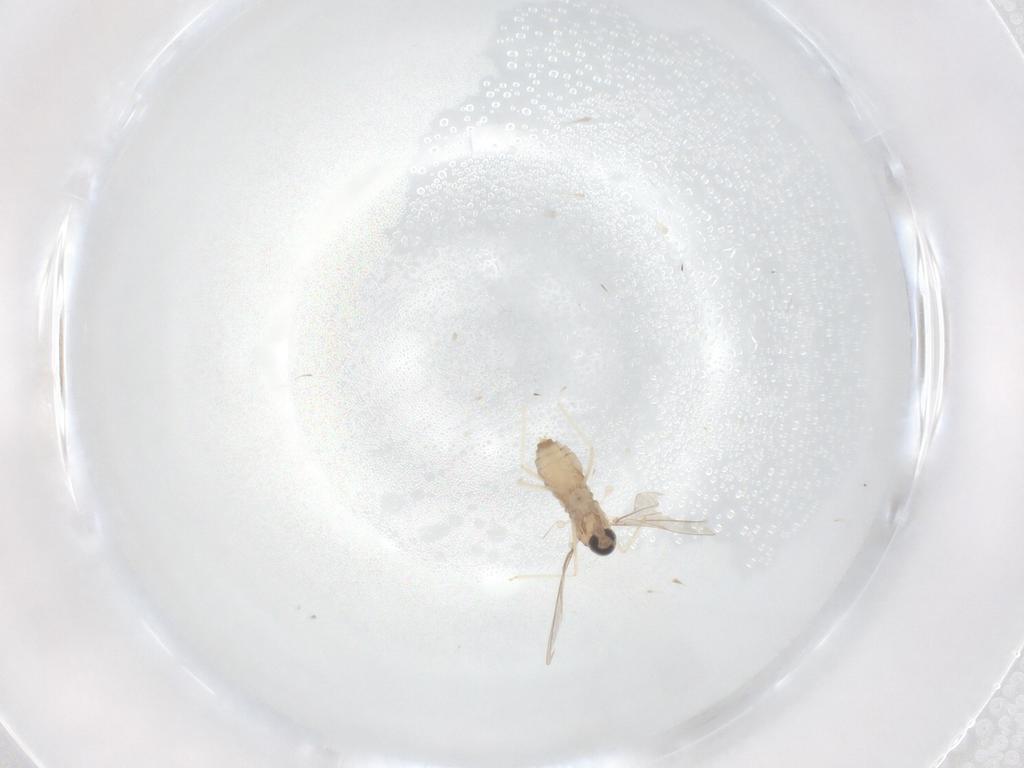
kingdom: Animalia
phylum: Arthropoda
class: Insecta
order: Diptera
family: Cecidomyiidae
